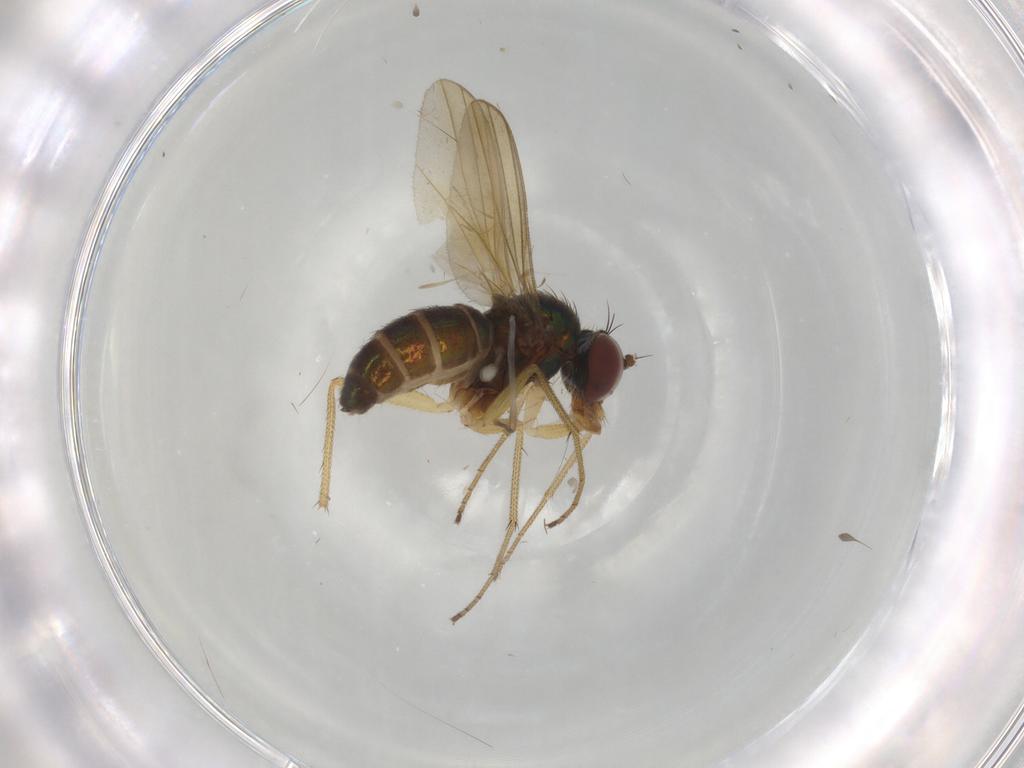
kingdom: Animalia
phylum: Arthropoda
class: Insecta
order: Diptera
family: Dolichopodidae
